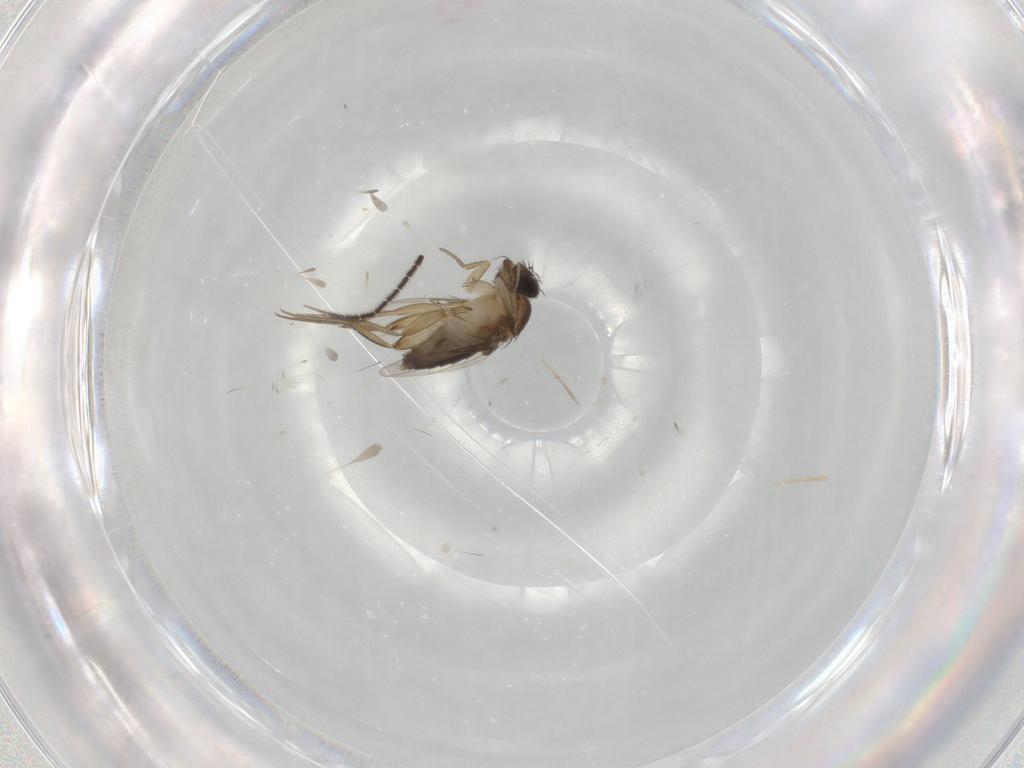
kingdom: Animalia
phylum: Arthropoda
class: Insecta
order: Diptera
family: Phoridae
